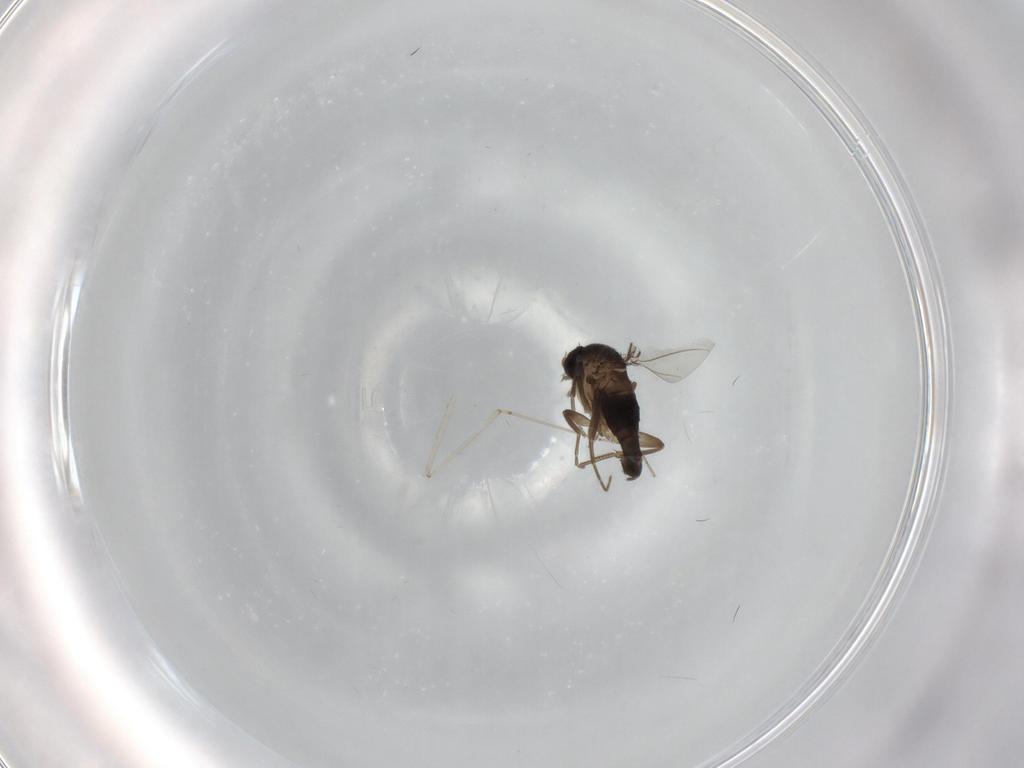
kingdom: Animalia
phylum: Arthropoda
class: Insecta
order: Diptera
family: Phoridae
